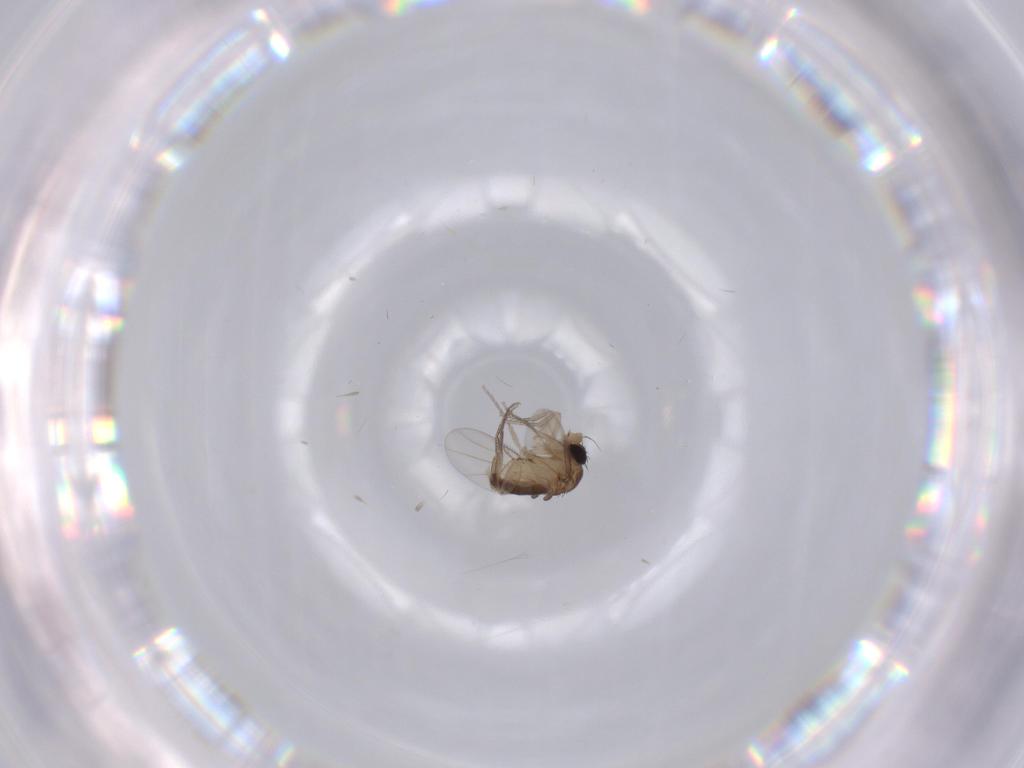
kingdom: Animalia
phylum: Arthropoda
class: Insecta
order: Diptera
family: Phoridae
